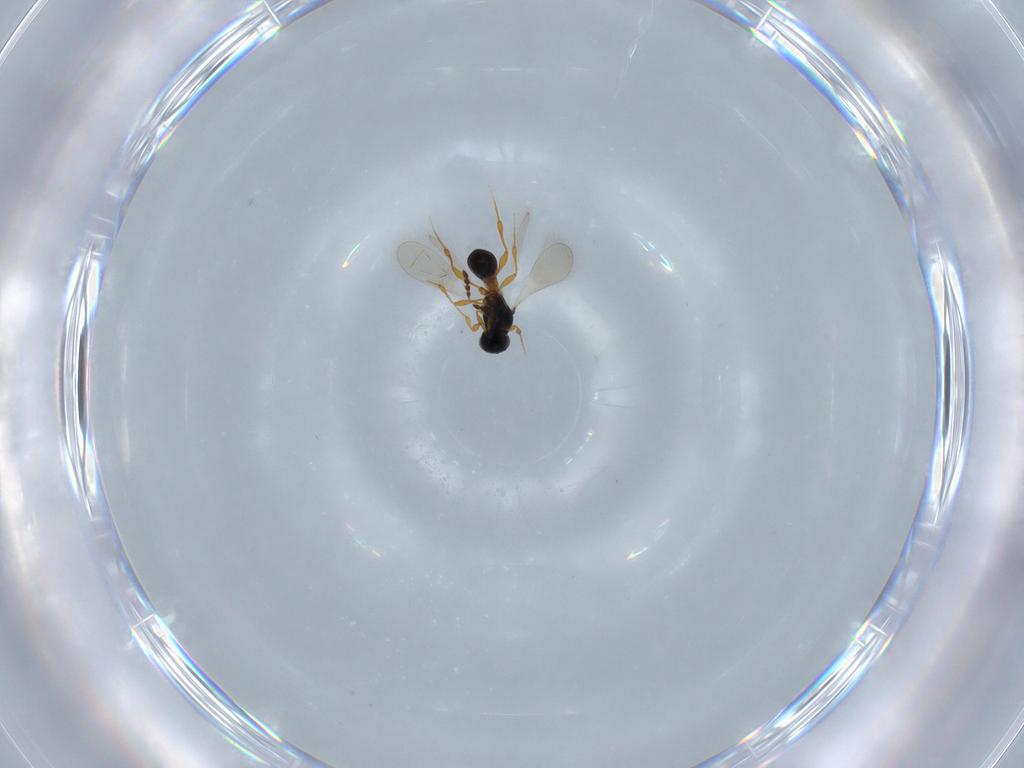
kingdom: Animalia
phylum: Arthropoda
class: Insecta
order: Hymenoptera
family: Platygastridae
